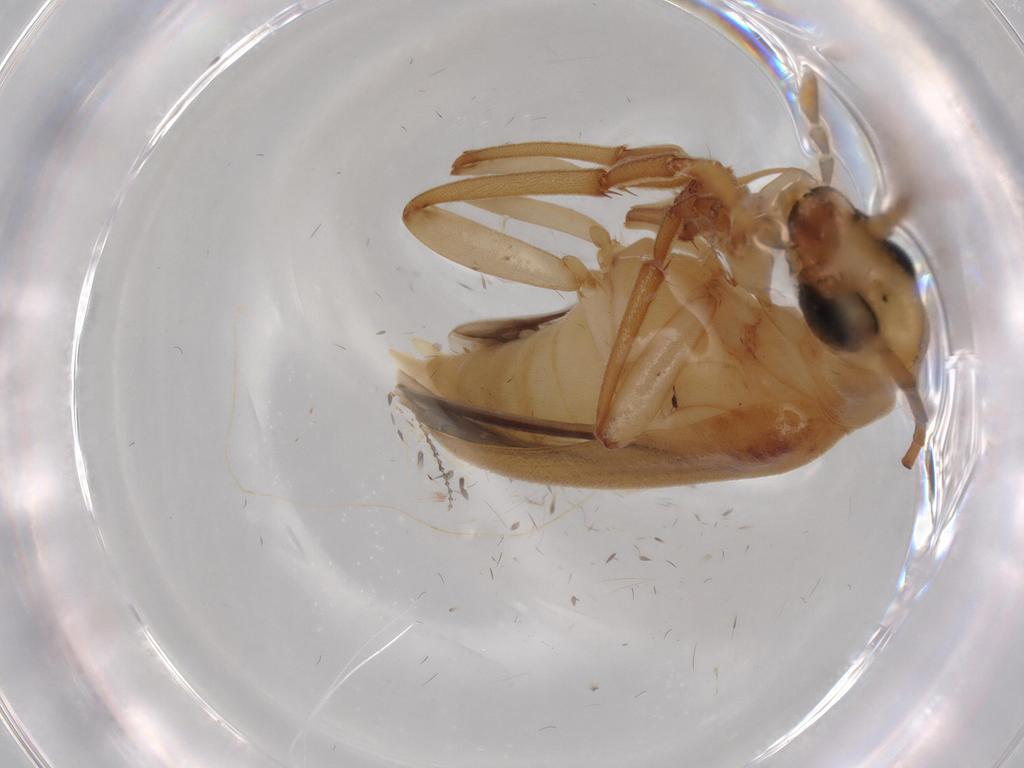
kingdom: Animalia
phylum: Arthropoda
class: Insecta
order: Coleoptera
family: Oedemeridae
